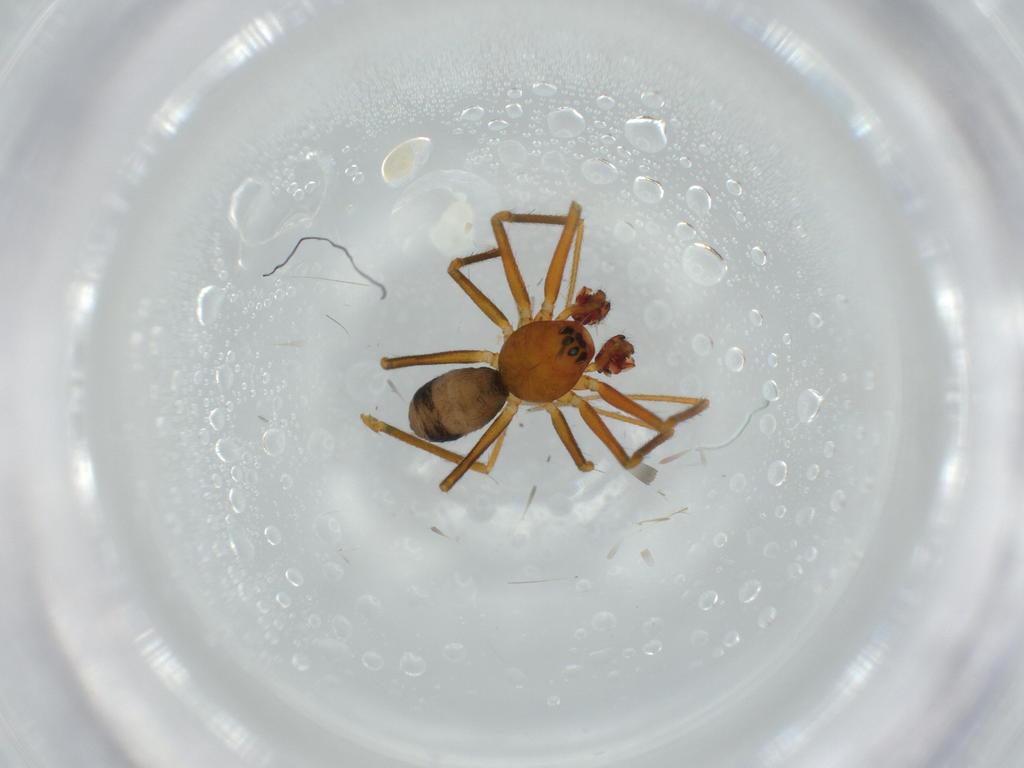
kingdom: Animalia
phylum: Arthropoda
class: Arachnida
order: Araneae
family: Linyphiidae
